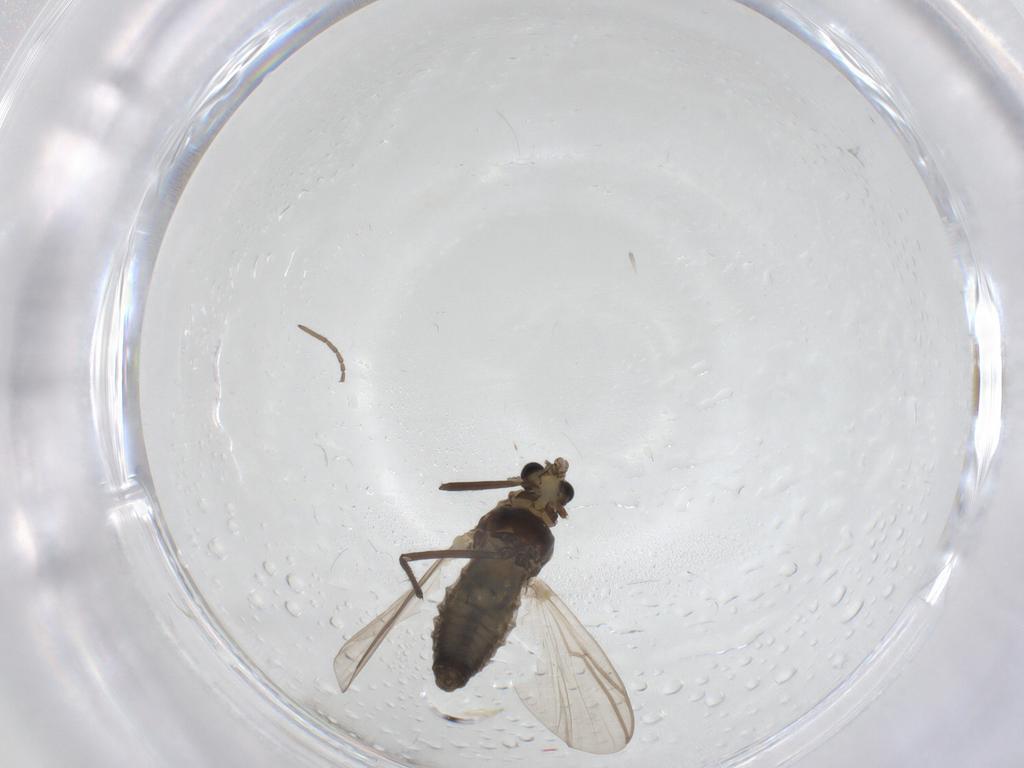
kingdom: Animalia
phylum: Arthropoda
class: Insecta
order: Diptera
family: Chironomidae
